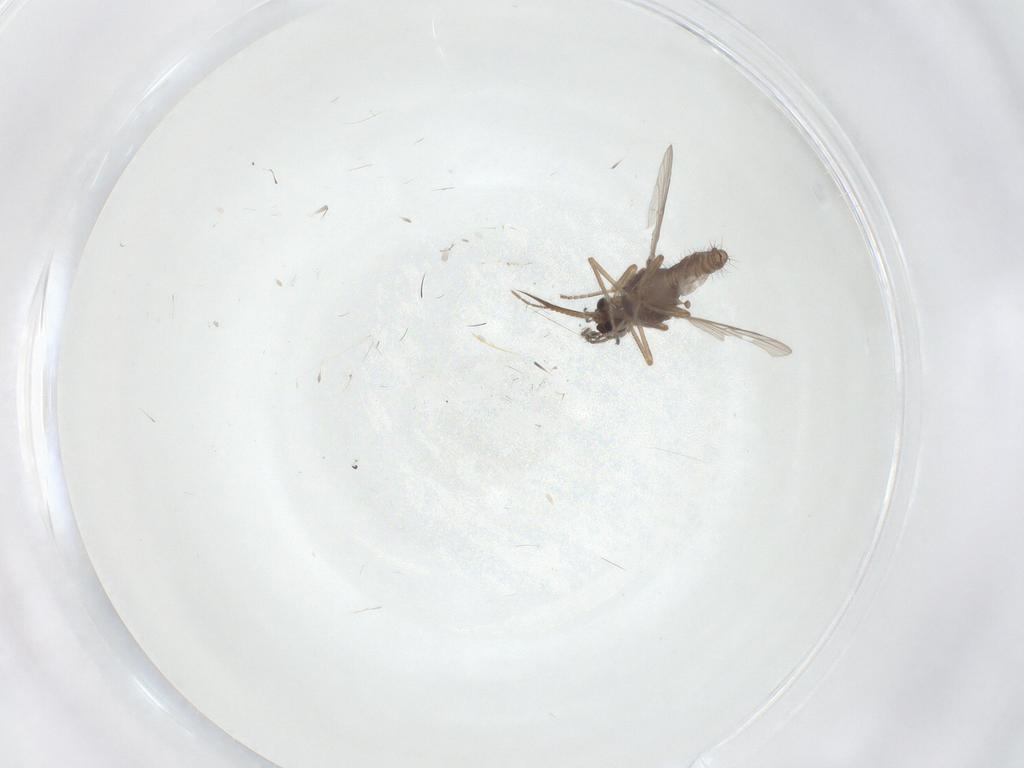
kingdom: Animalia
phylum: Arthropoda
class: Insecta
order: Diptera
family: Ceratopogonidae
